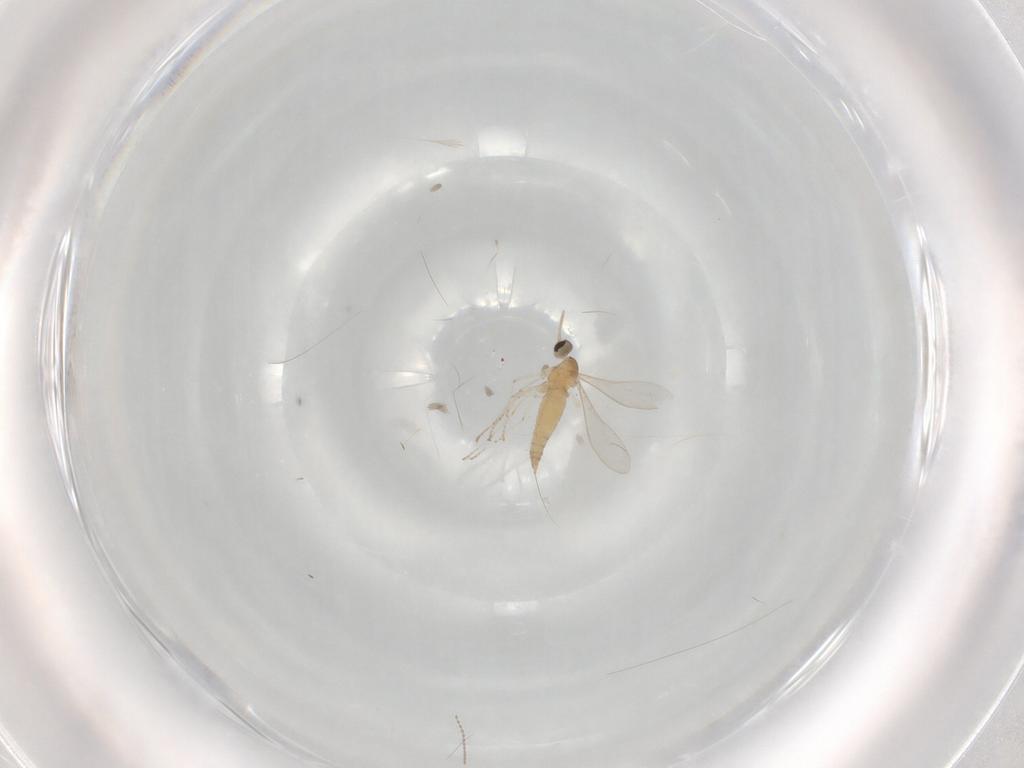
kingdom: Animalia
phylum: Arthropoda
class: Insecta
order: Diptera
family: Cecidomyiidae
